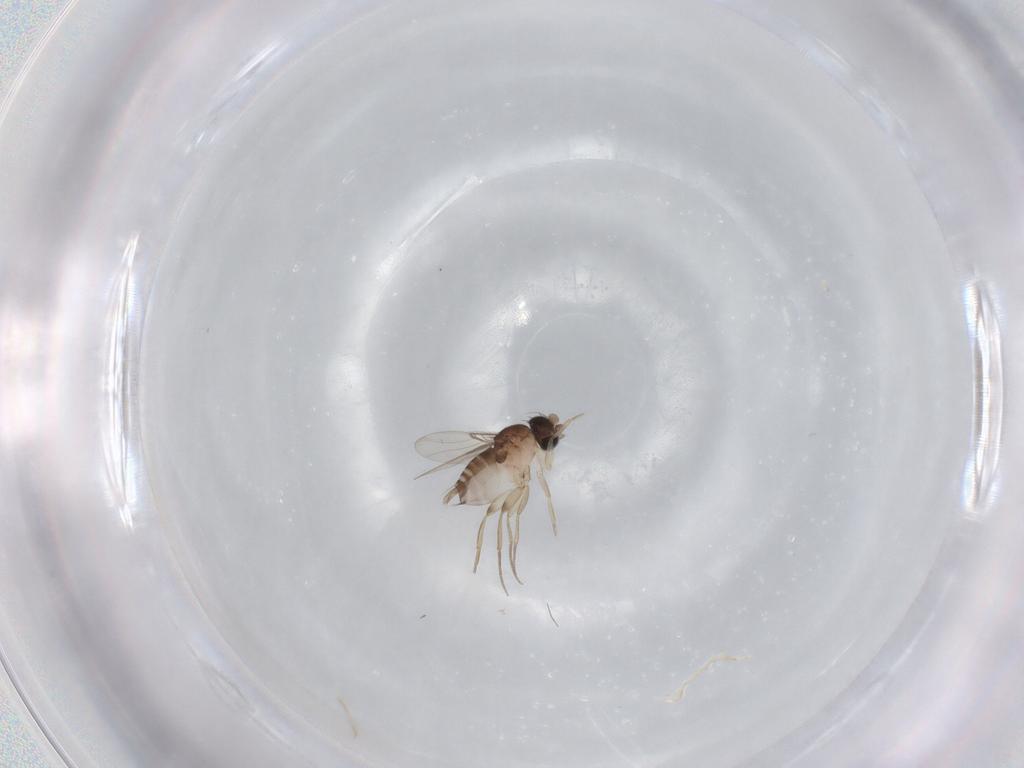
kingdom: Animalia
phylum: Arthropoda
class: Insecta
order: Diptera
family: Phoridae
